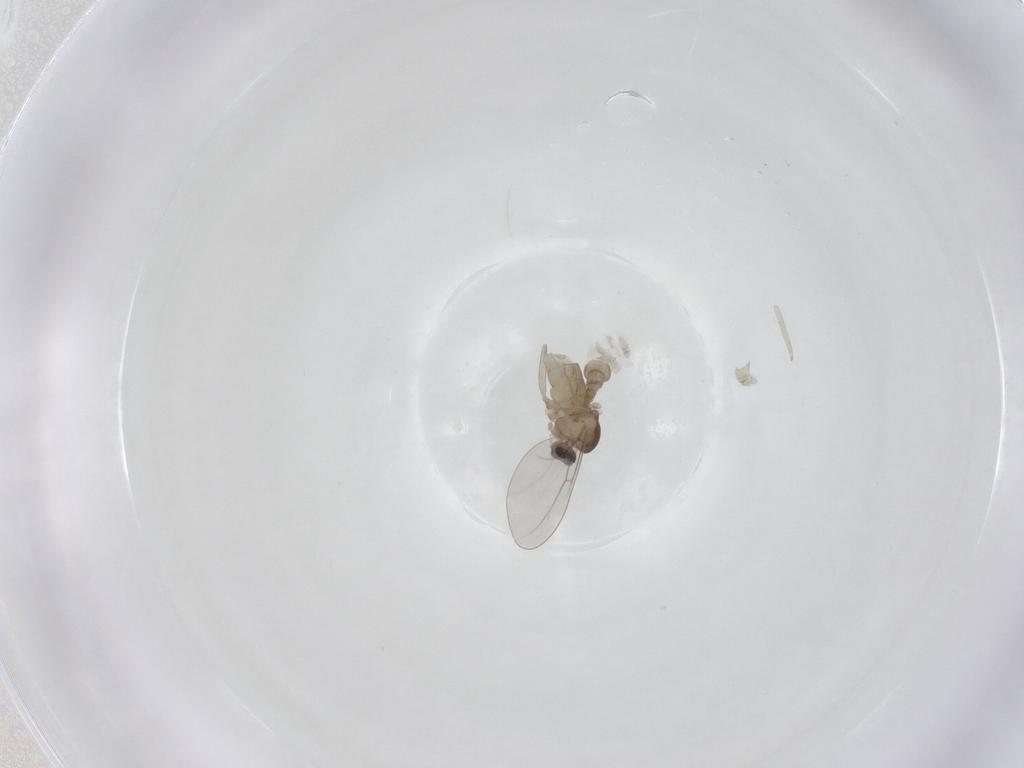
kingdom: Animalia
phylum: Arthropoda
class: Insecta
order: Diptera
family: Cecidomyiidae
